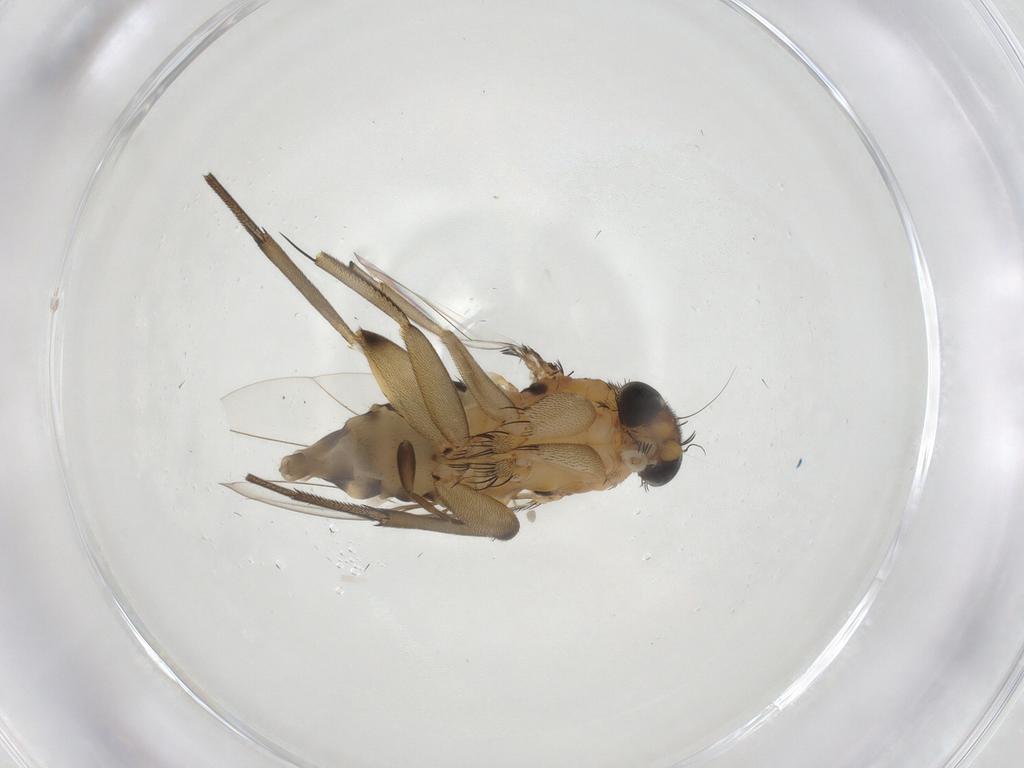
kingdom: Animalia
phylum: Arthropoda
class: Insecta
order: Diptera
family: Phoridae
